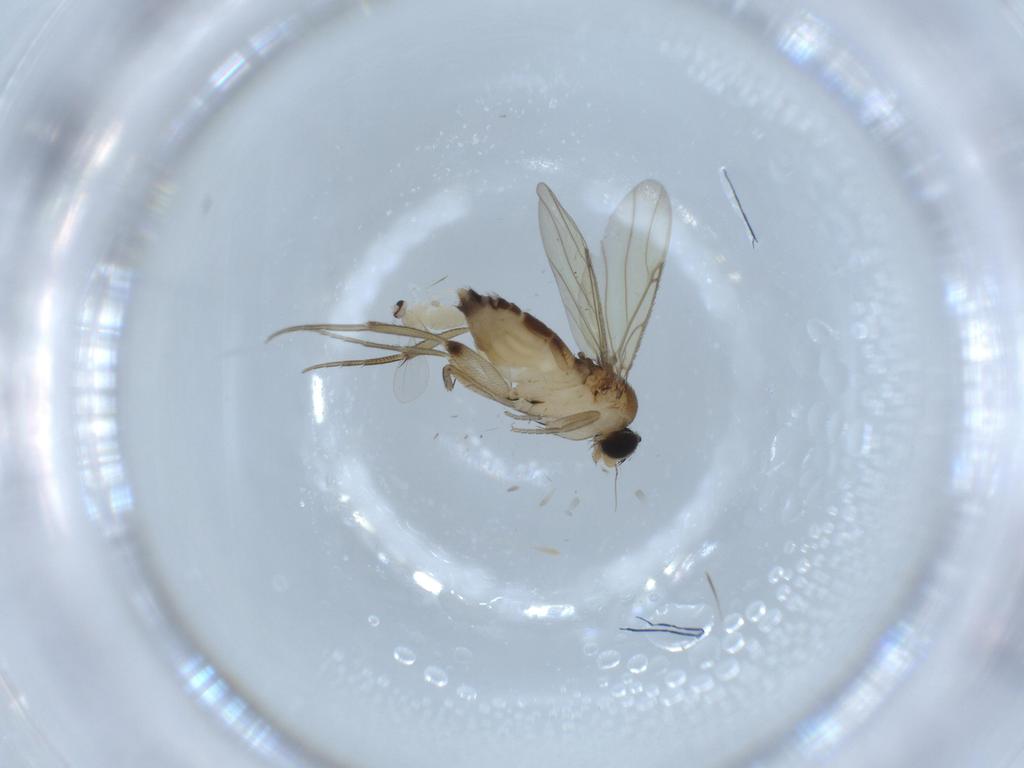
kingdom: Animalia
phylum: Arthropoda
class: Insecta
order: Diptera
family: Phoridae
